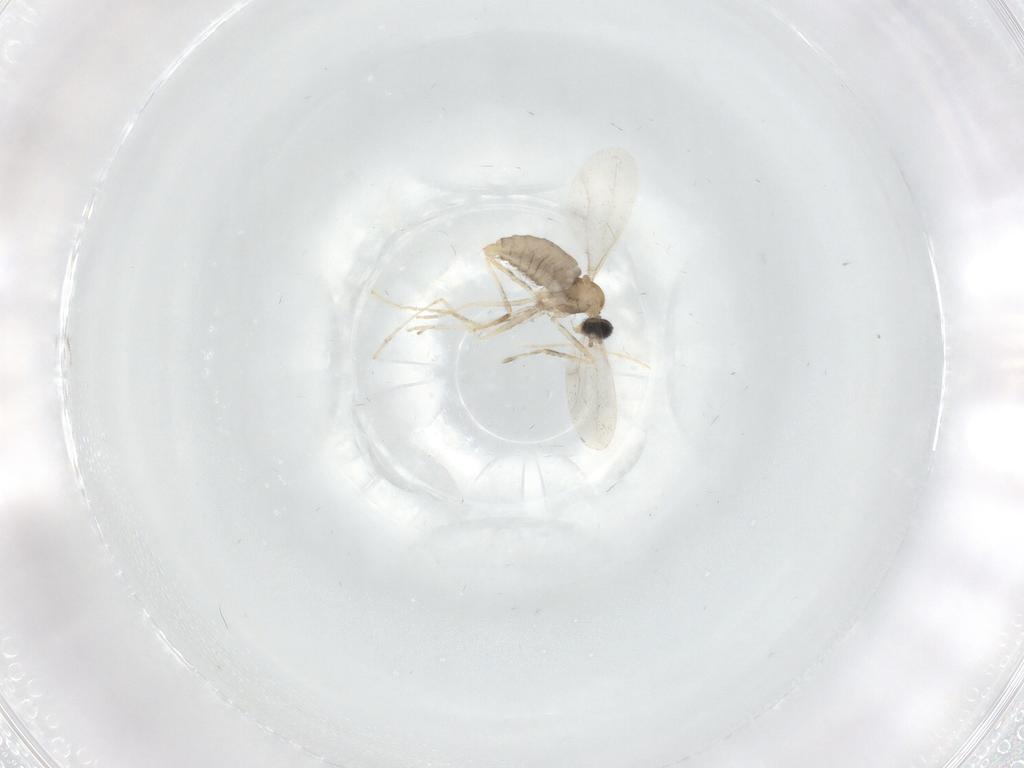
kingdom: Animalia
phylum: Arthropoda
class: Insecta
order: Diptera
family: Cecidomyiidae
